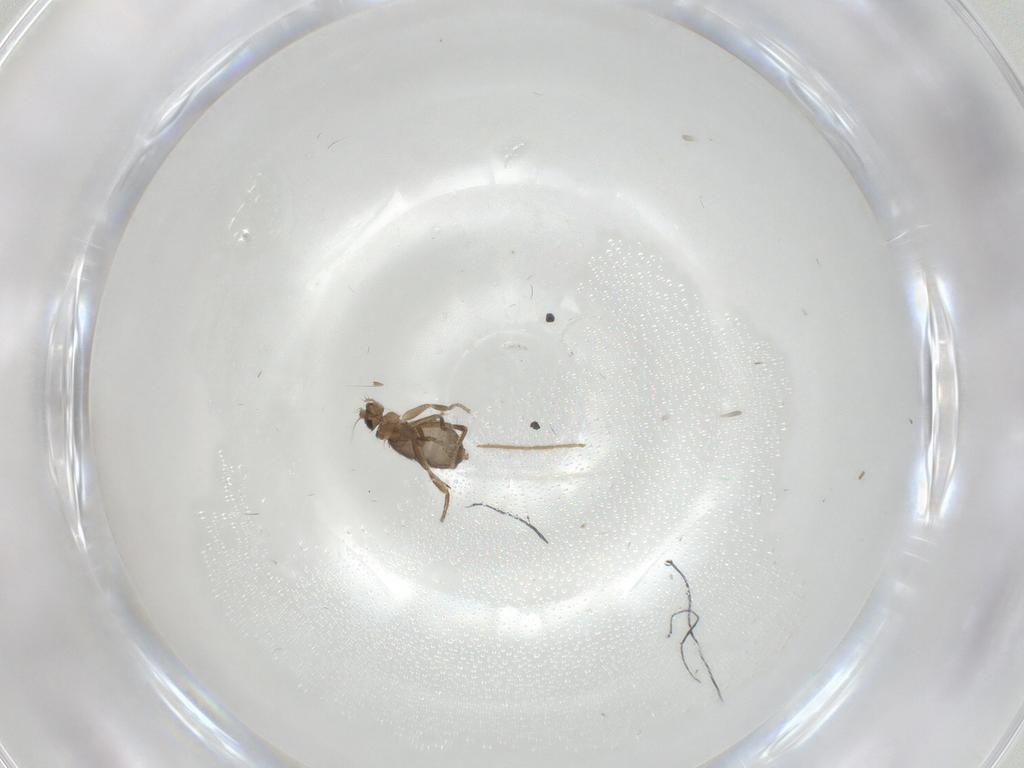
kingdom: Animalia
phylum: Arthropoda
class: Insecta
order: Diptera
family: Phoridae
